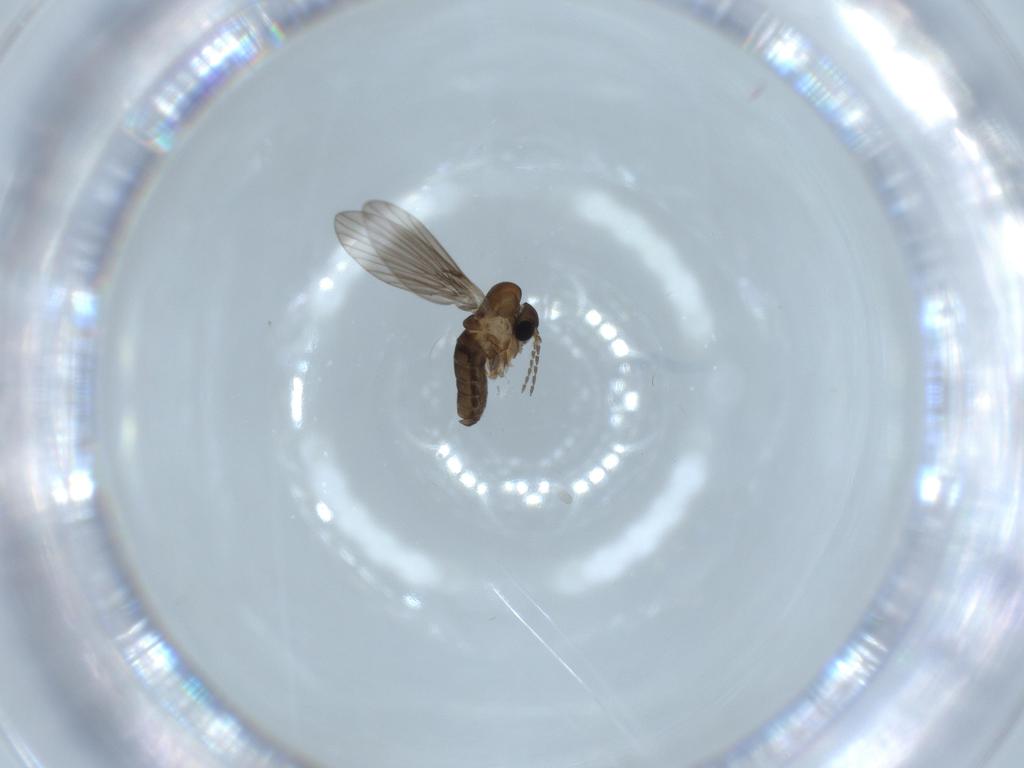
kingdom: Animalia
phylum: Arthropoda
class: Insecta
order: Diptera
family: Psychodidae
